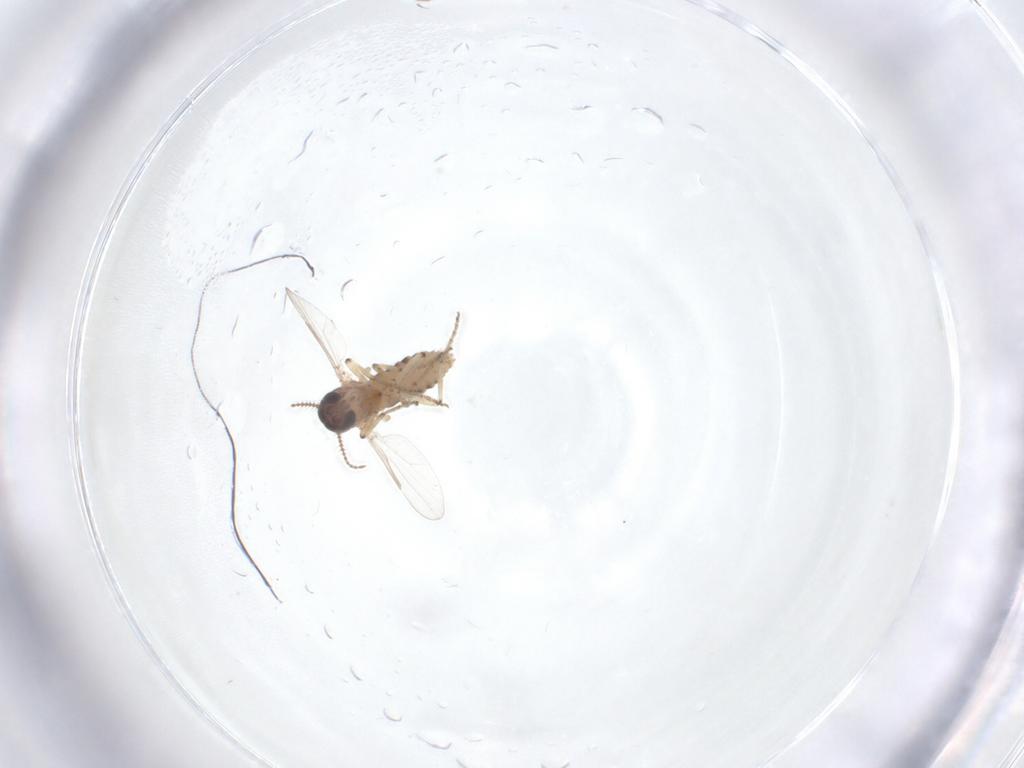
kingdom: Animalia
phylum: Arthropoda
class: Insecta
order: Diptera
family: Ceratopogonidae
